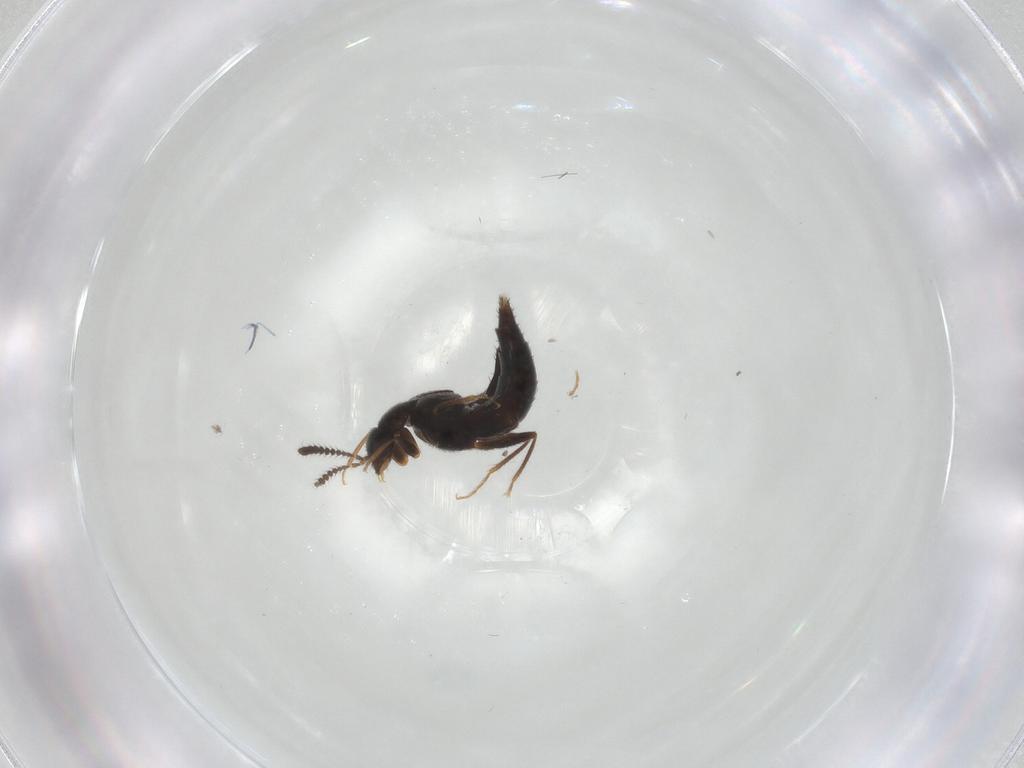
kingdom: Animalia
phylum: Arthropoda
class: Insecta
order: Coleoptera
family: Staphylinidae
